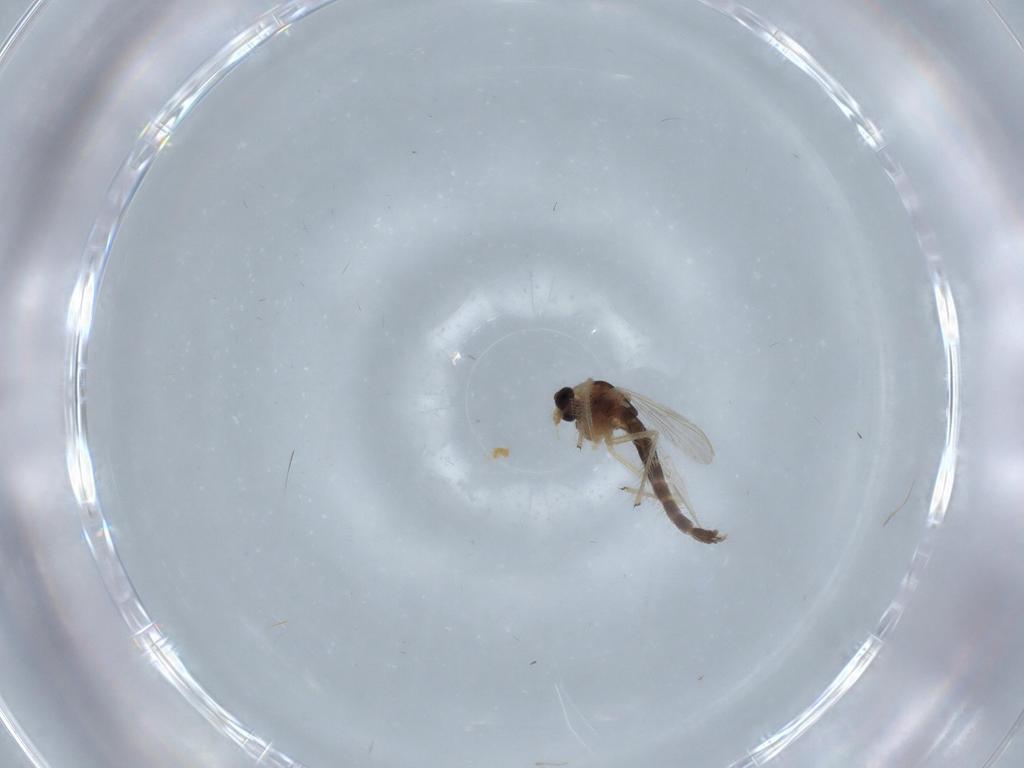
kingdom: Animalia
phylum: Arthropoda
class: Insecta
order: Diptera
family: Chironomidae
